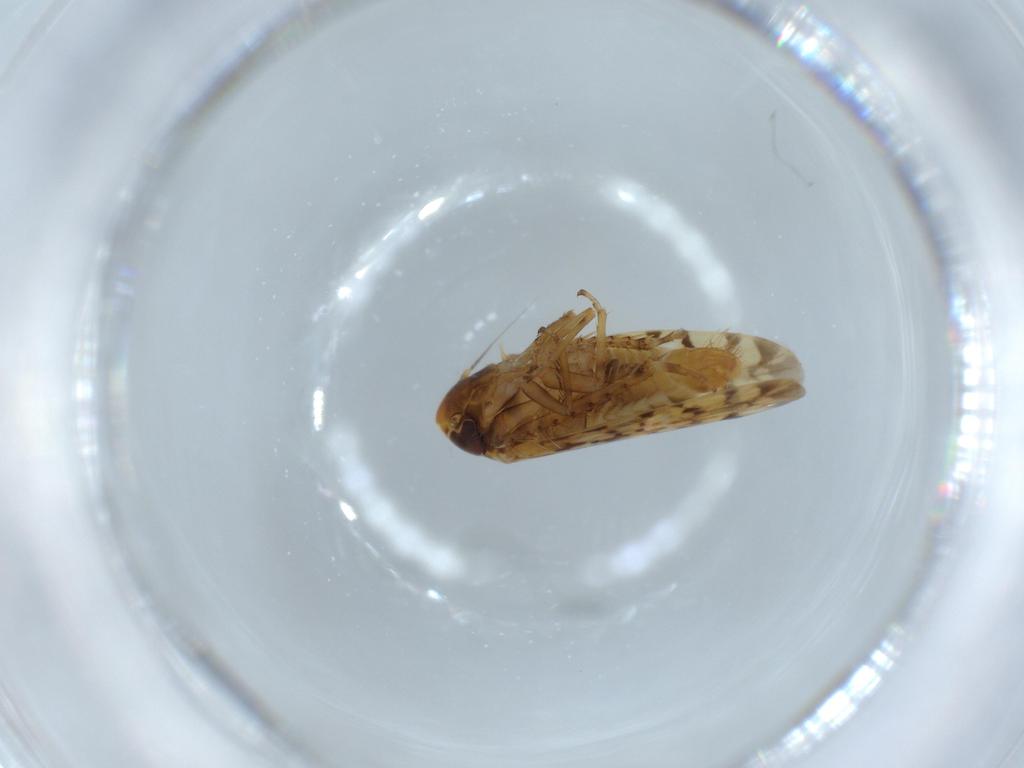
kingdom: Animalia
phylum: Arthropoda
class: Insecta
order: Hemiptera
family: Cicadellidae
